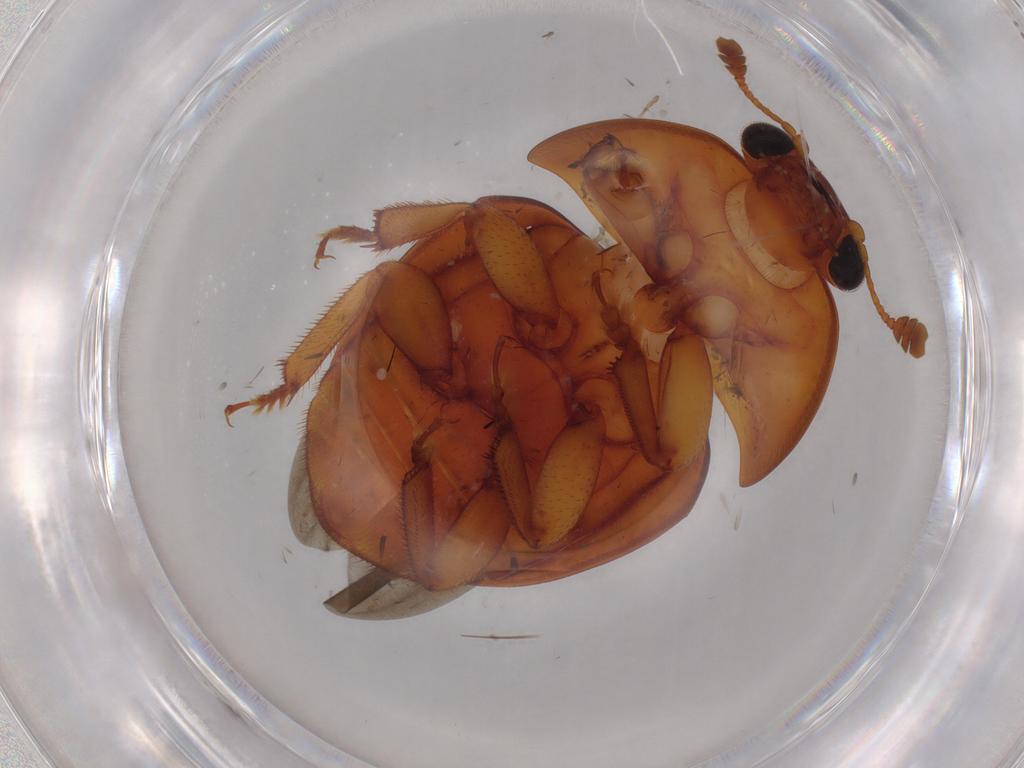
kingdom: Animalia
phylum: Arthropoda
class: Insecta
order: Coleoptera
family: Nitidulidae
